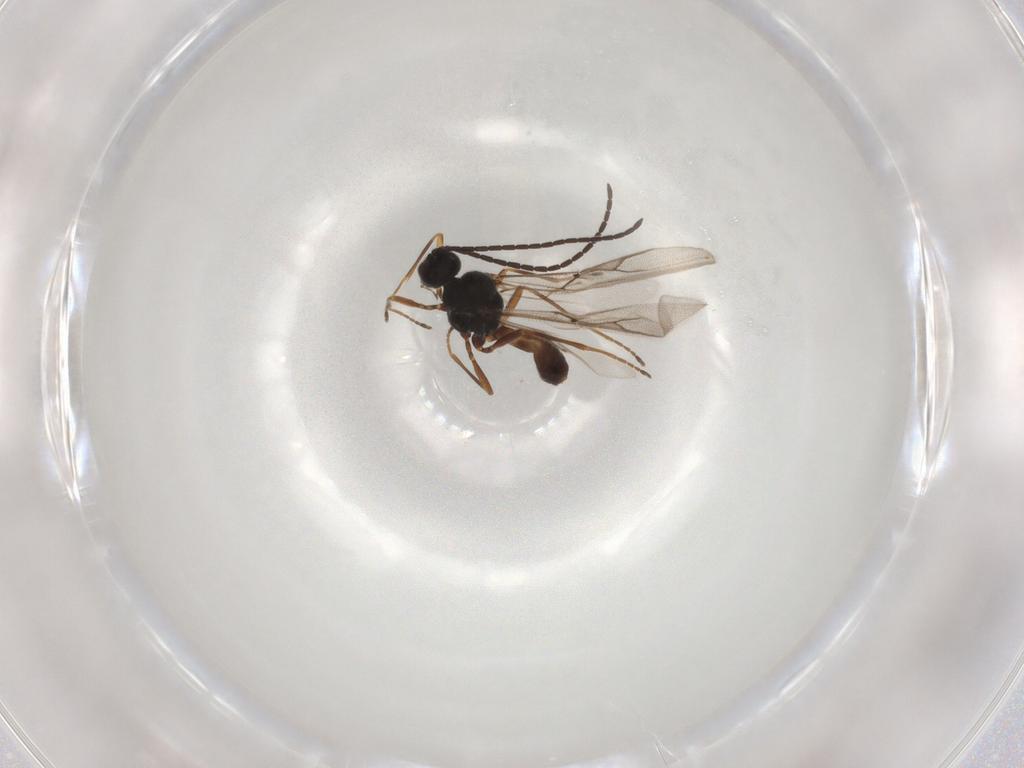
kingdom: Animalia
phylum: Arthropoda
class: Insecta
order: Hymenoptera
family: Braconidae
